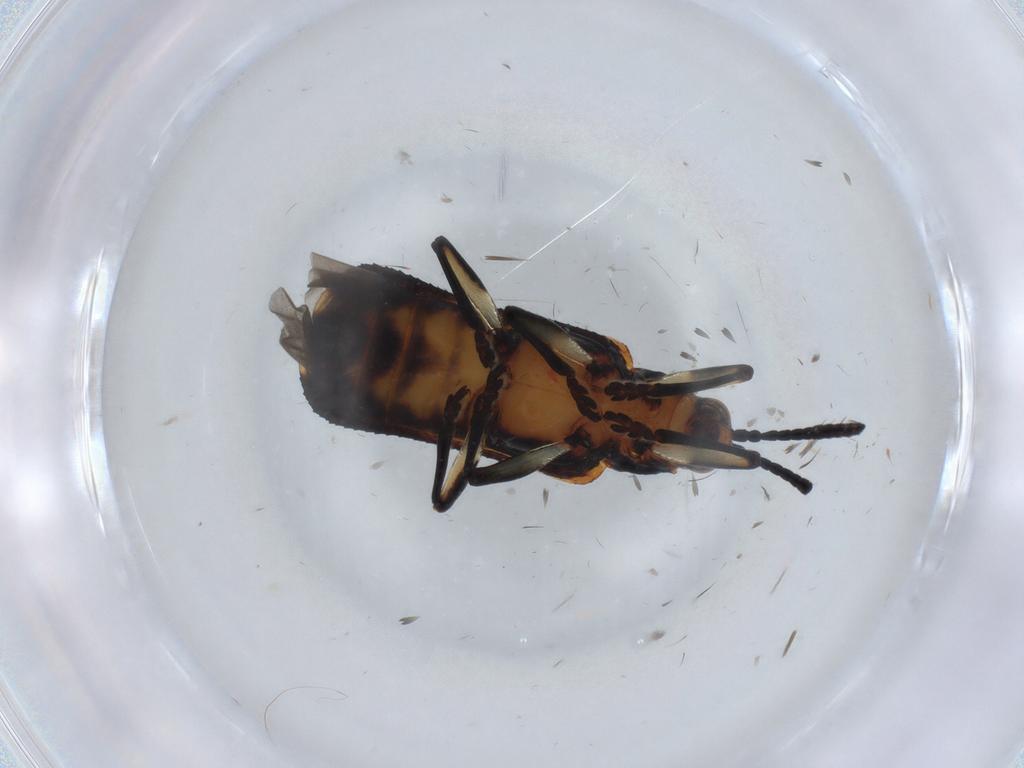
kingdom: Animalia
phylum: Arthropoda
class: Insecta
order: Coleoptera
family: Chrysomelidae
